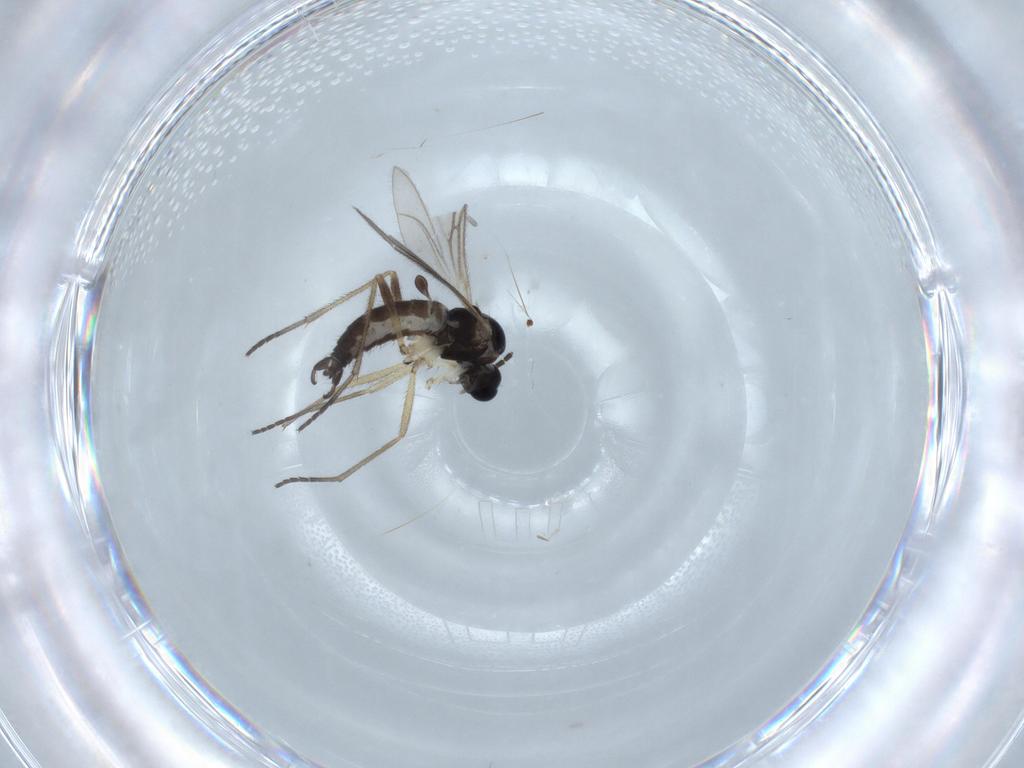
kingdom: Animalia
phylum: Arthropoda
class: Insecta
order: Diptera
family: Sciaridae
